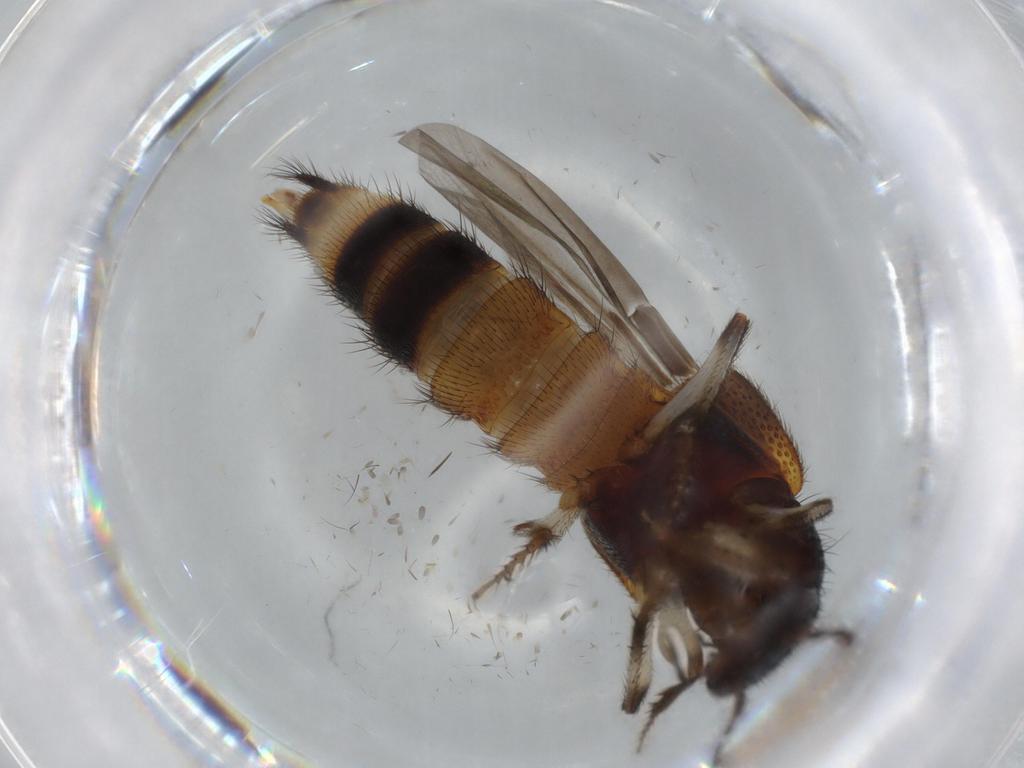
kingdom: Animalia
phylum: Arthropoda
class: Insecta
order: Coleoptera
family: Staphylinidae
